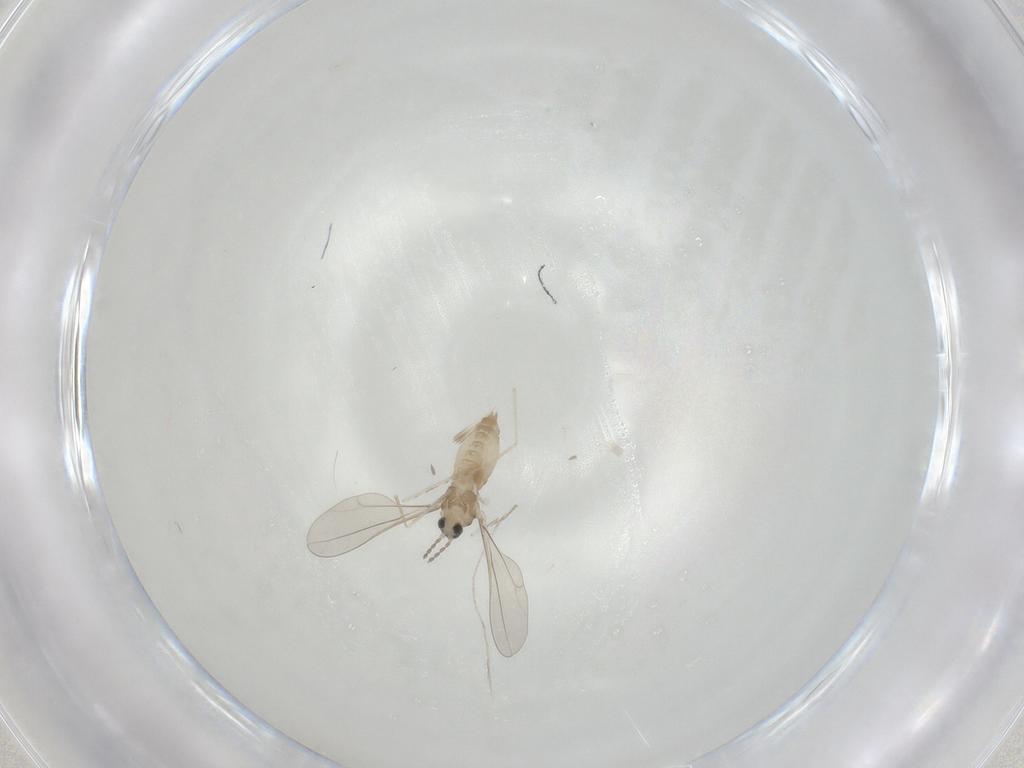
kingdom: Animalia
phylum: Arthropoda
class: Insecta
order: Diptera
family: Cecidomyiidae
